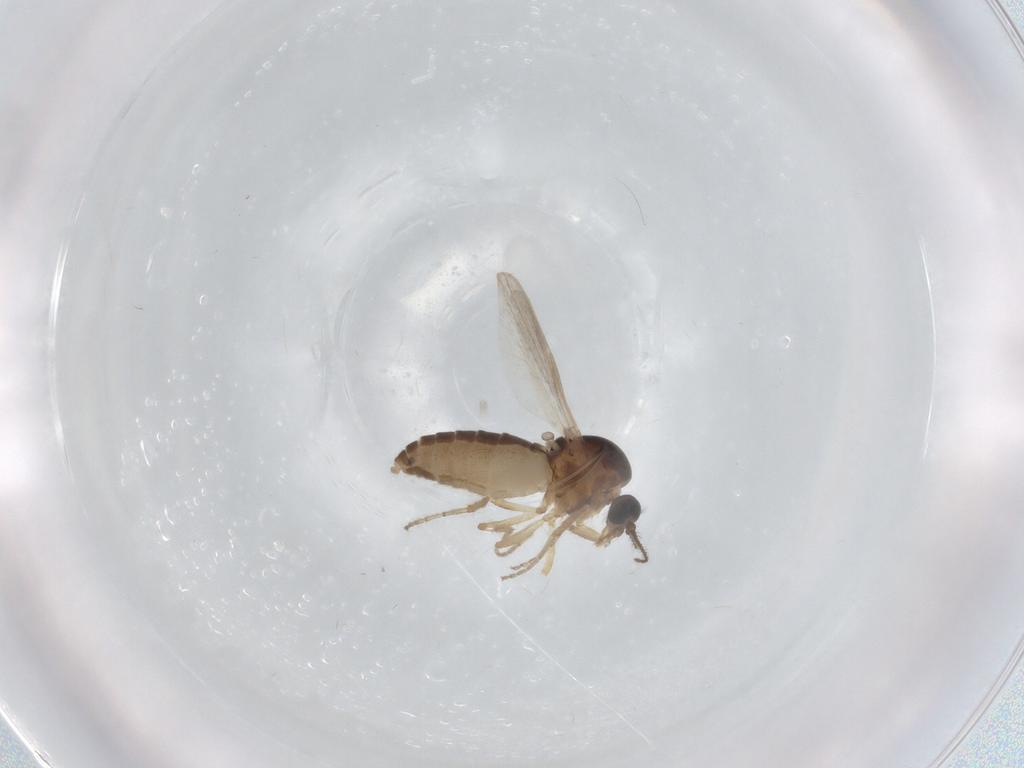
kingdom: Animalia
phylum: Arthropoda
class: Insecta
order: Diptera
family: Ceratopogonidae
